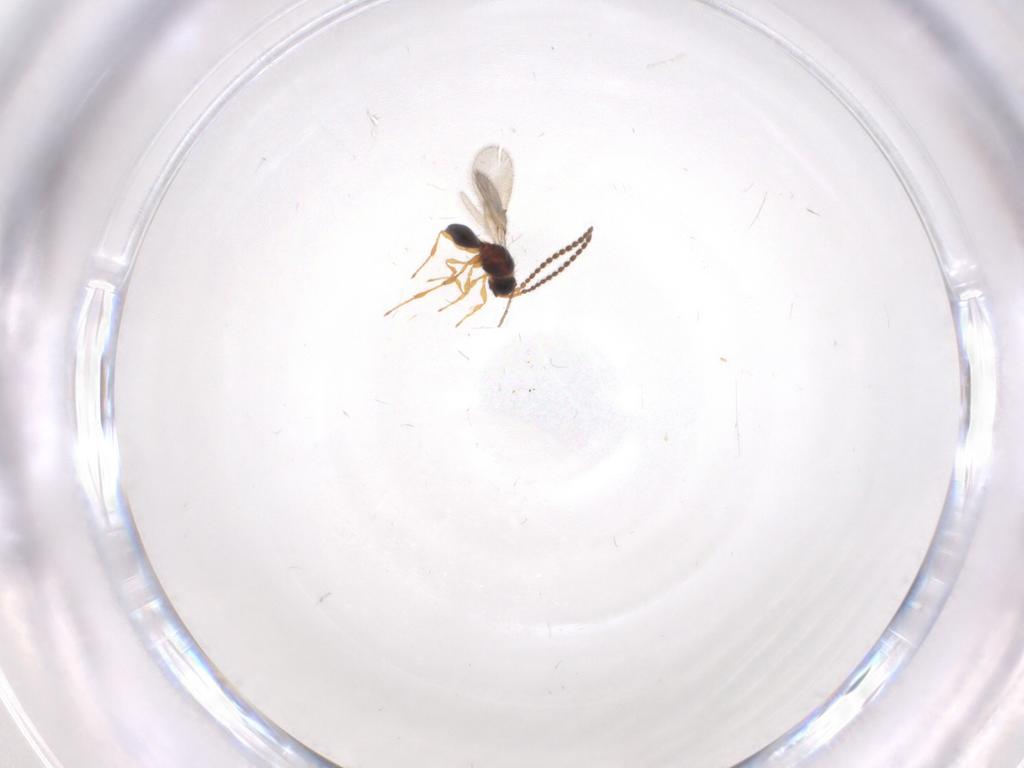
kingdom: Animalia
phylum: Arthropoda
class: Insecta
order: Hymenoptera
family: Diapriidae
